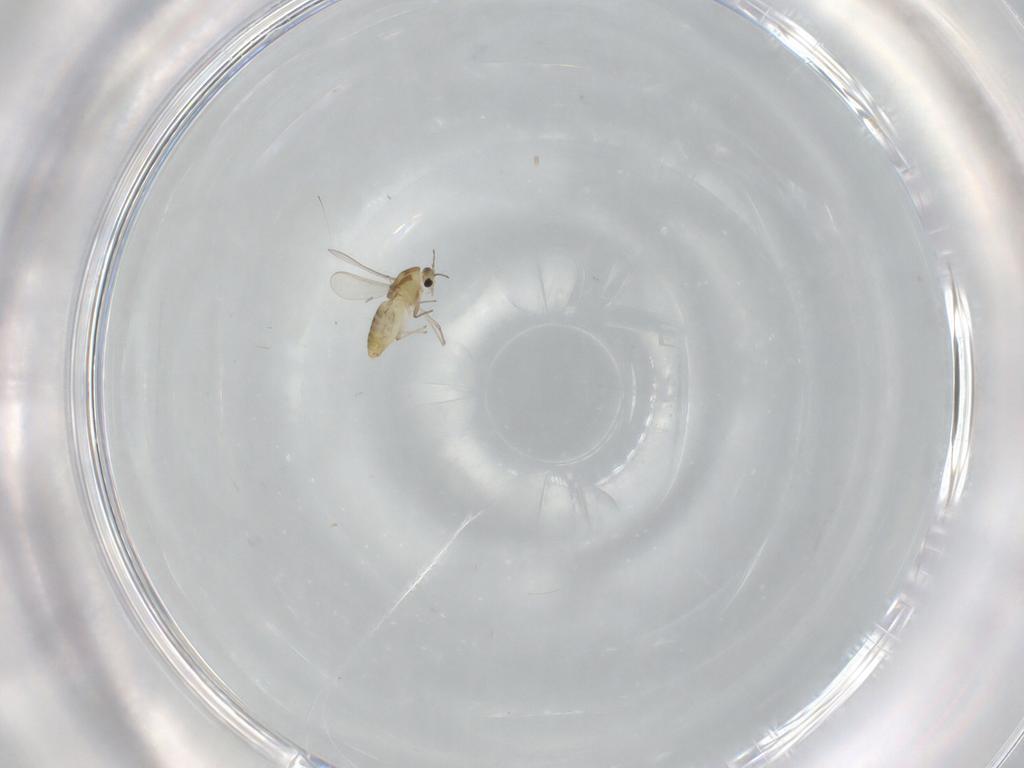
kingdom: Animalia
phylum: Arthropoda
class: Insecta
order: Diptera
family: Chironomidae
